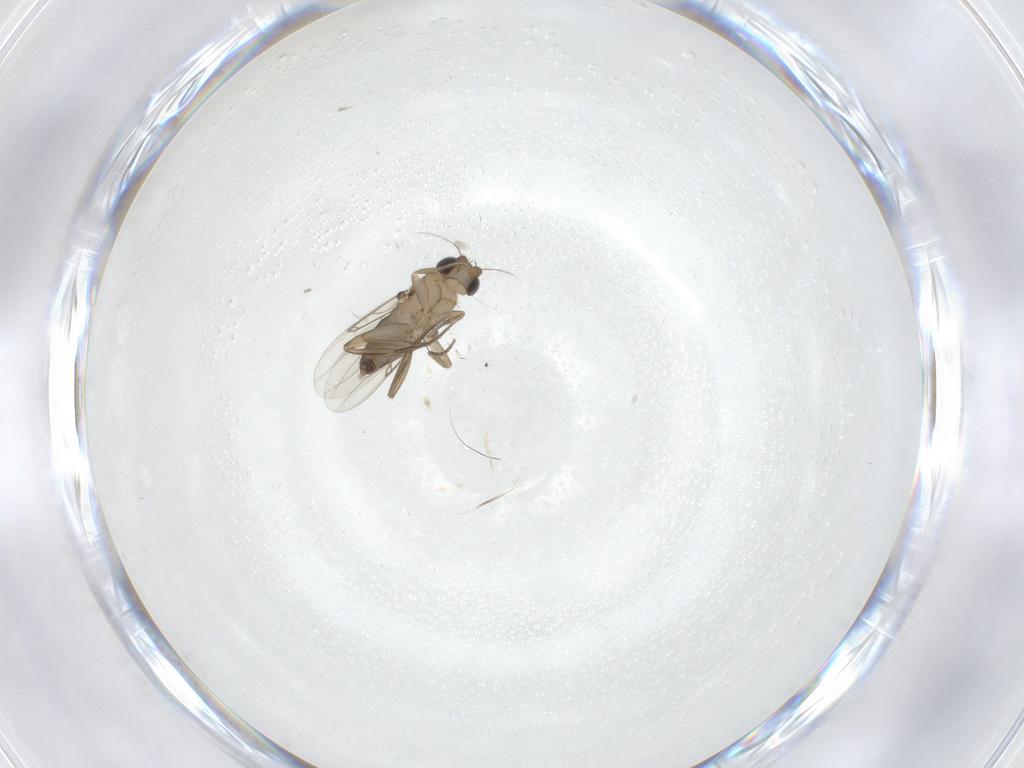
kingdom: Animalia
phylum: Arthropoda
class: Insecta
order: Diptera
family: Phoridae
